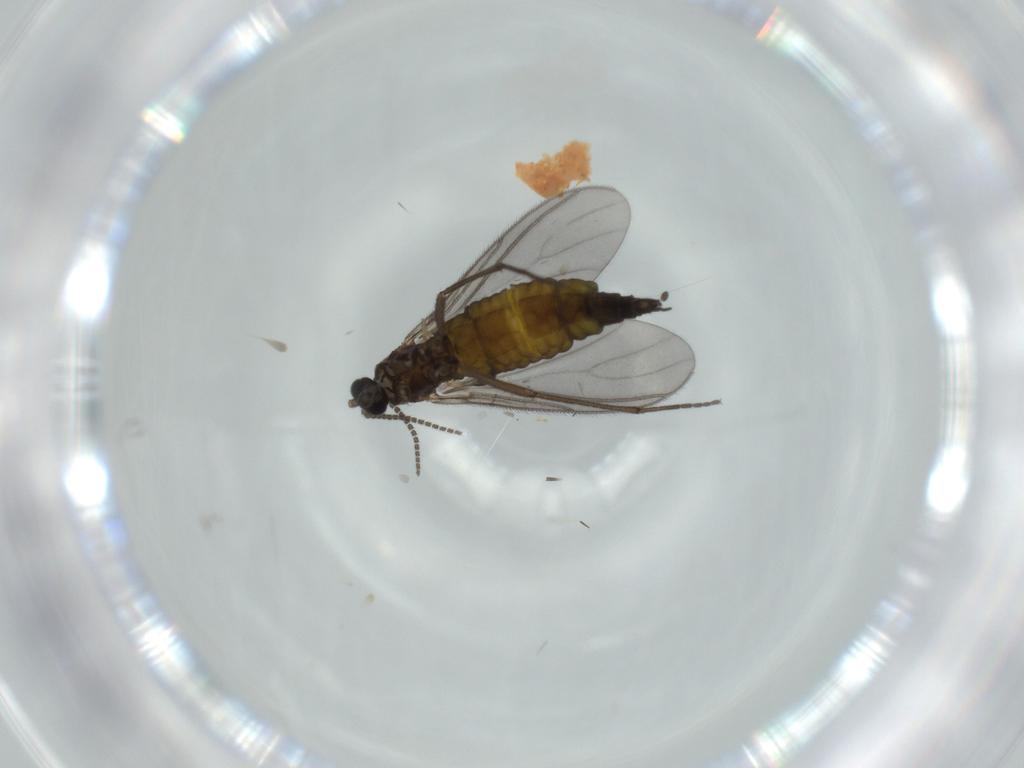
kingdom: Animalia
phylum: Arthropoda
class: Insecta
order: Diptera
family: Sciaridae
